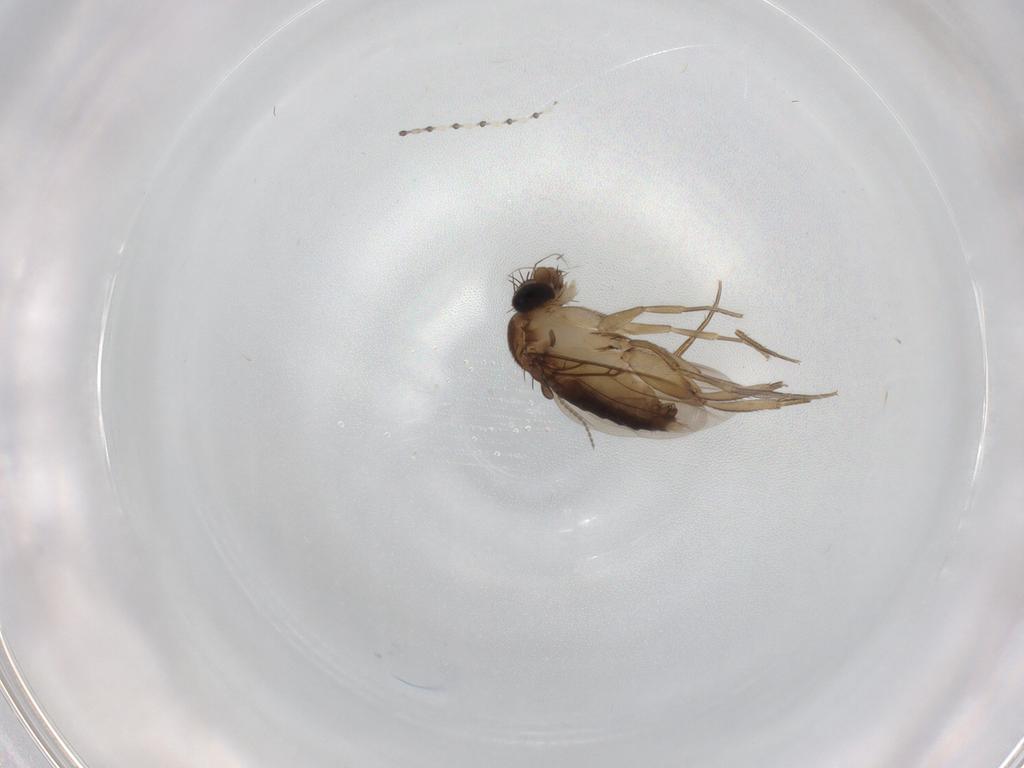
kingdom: Animalia
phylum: Arthropoda
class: Insecta
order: Diptera
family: Phoridae
